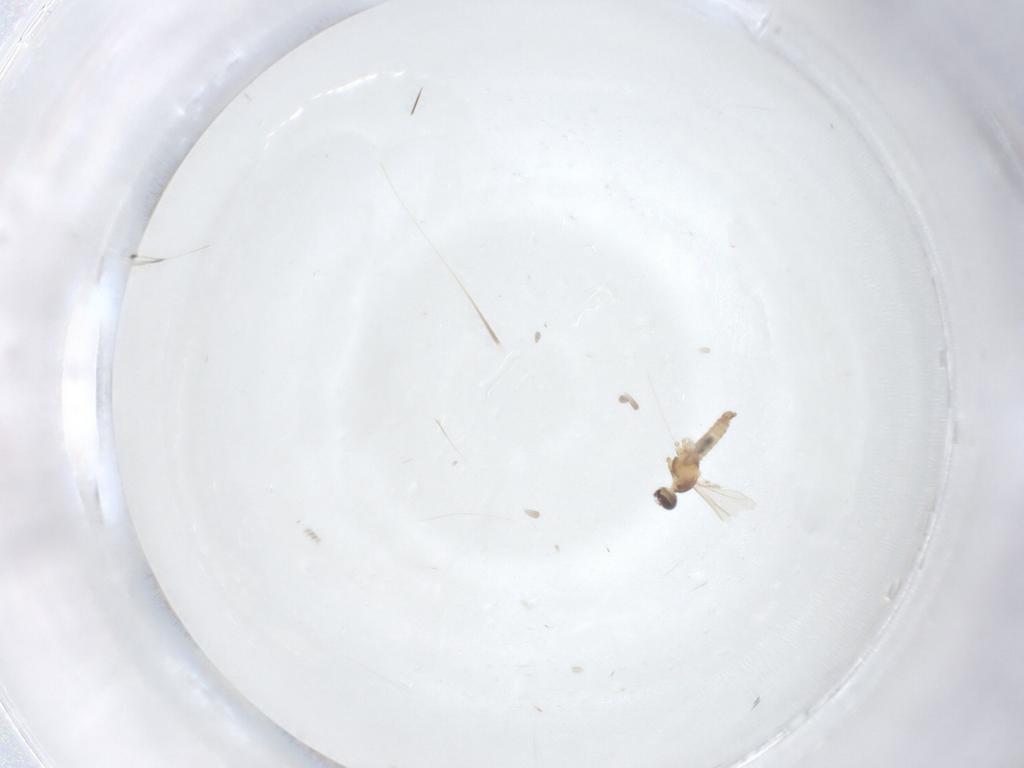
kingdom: Animalia
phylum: Arthropoda
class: Insecta
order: Diptera
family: Cecidomyiidae
